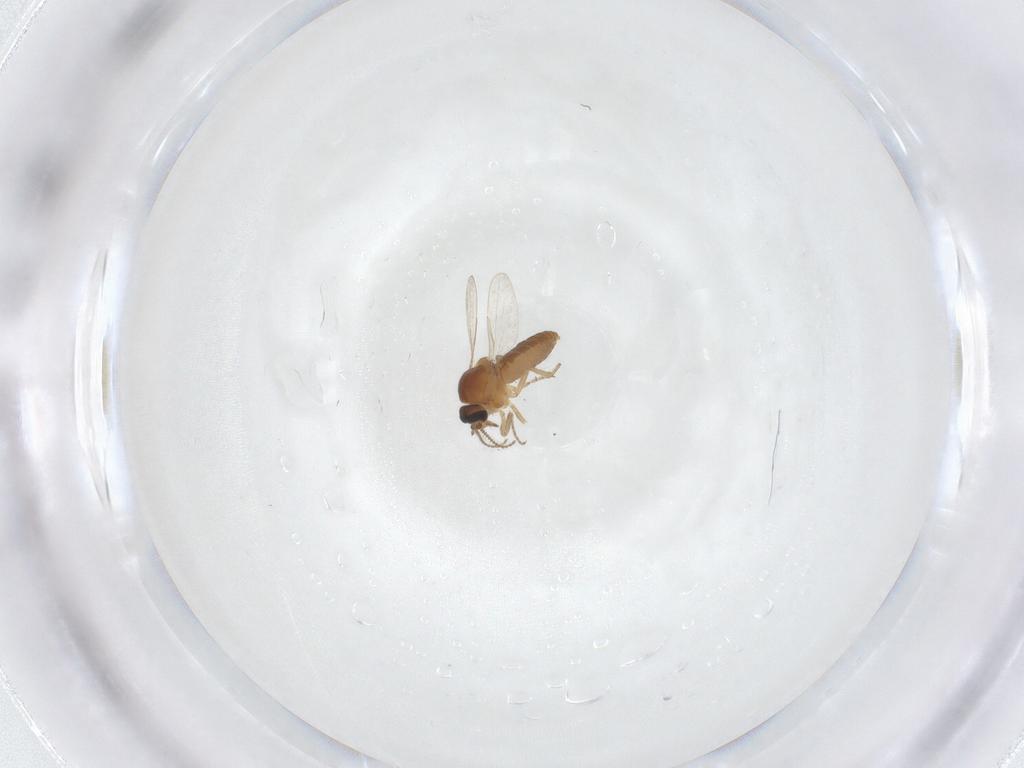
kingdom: Animalia
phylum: Arthropoda
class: Insecta
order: Diptera
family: Ceratopogonidae
